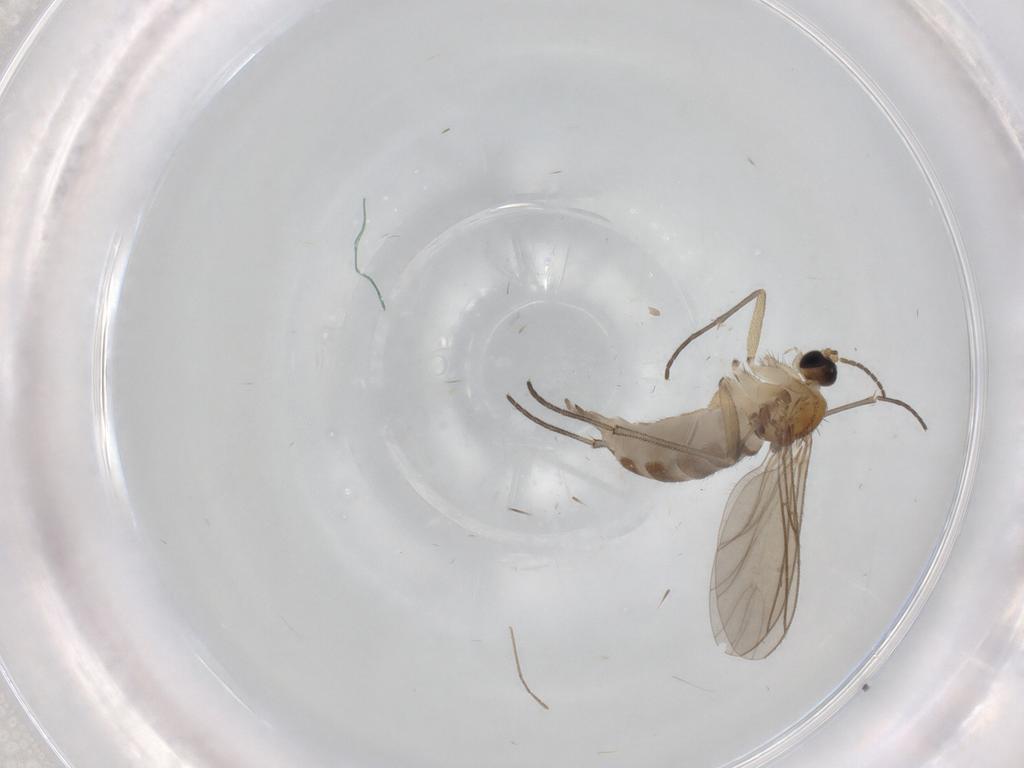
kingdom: Animalia
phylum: Arthropoda
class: Insecta
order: Diptera
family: Sciaridae
